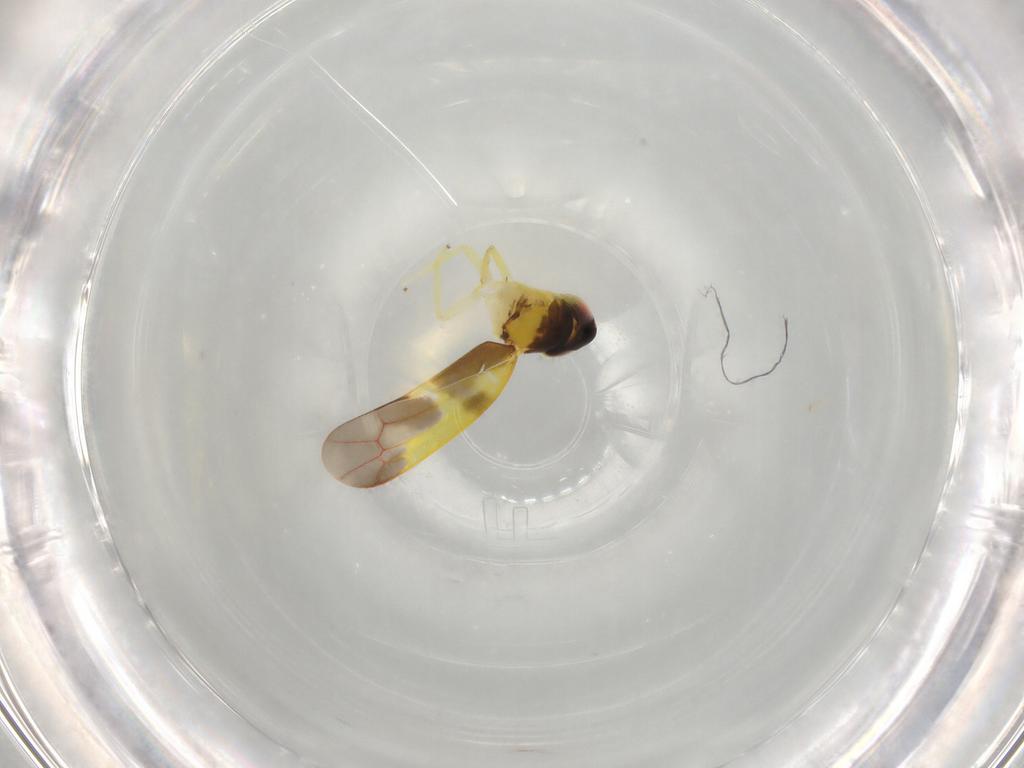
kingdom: Animalia
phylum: Arthropoda
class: Insecta
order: Hemiptera
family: Cicadellidae
